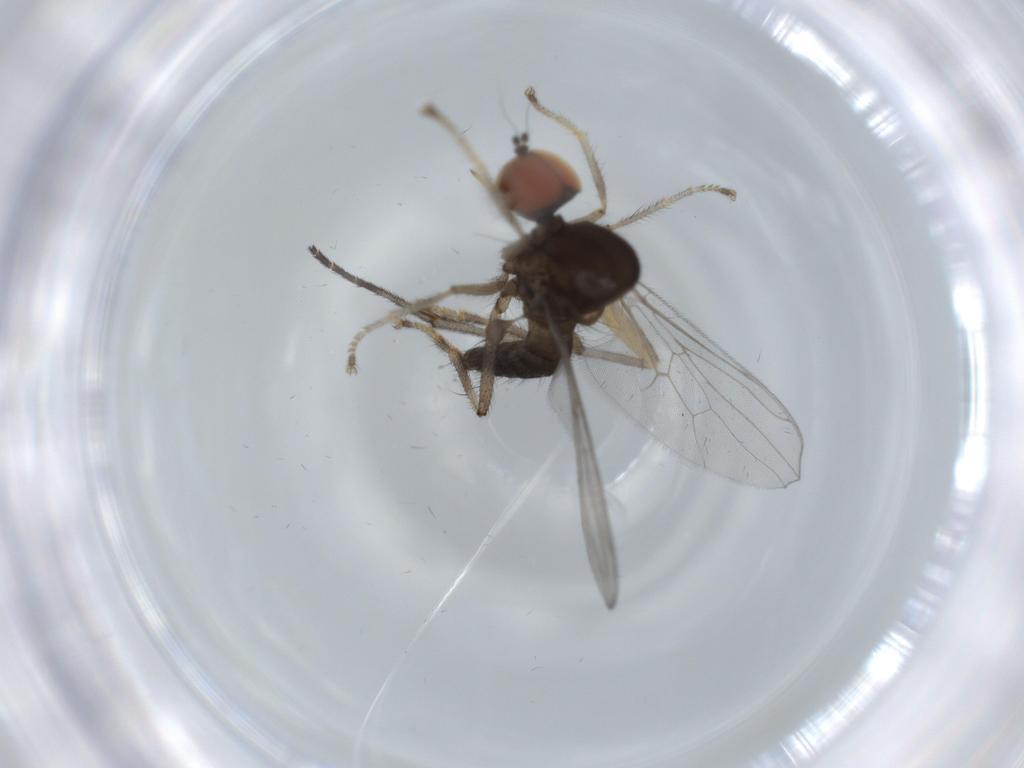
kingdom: Animalia
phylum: Arthropoda
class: Insecta
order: Diptera
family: Hybotidae
